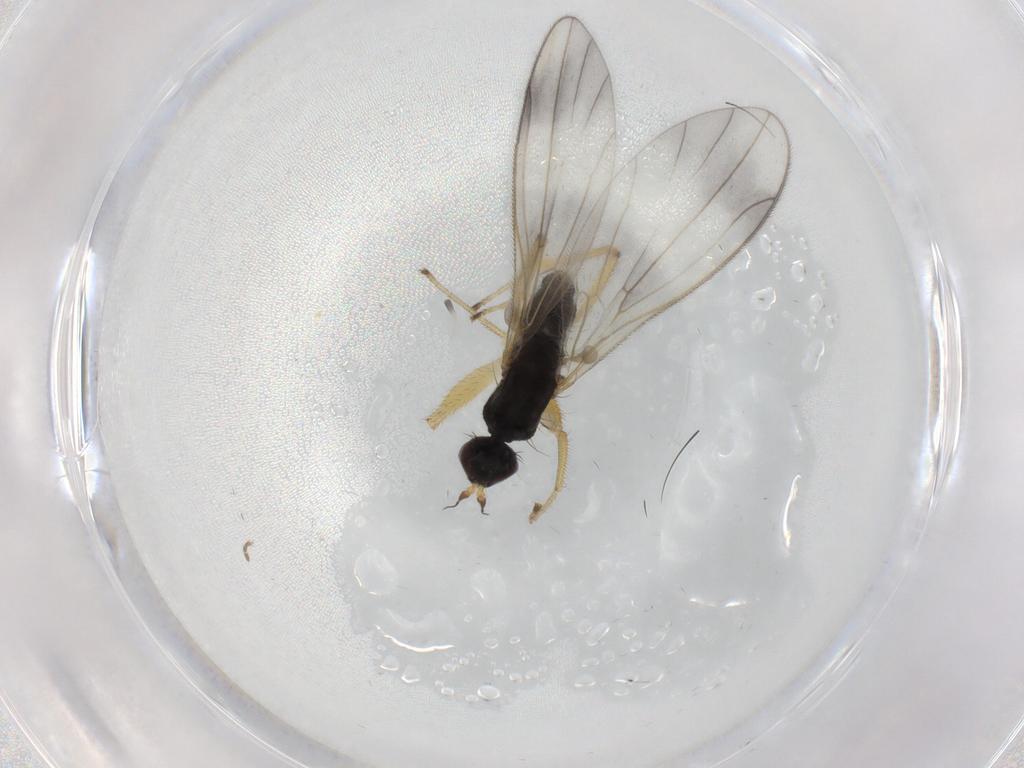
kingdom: Animalia
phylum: Arthropoda
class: Insecta
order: Diptera
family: Empididae
